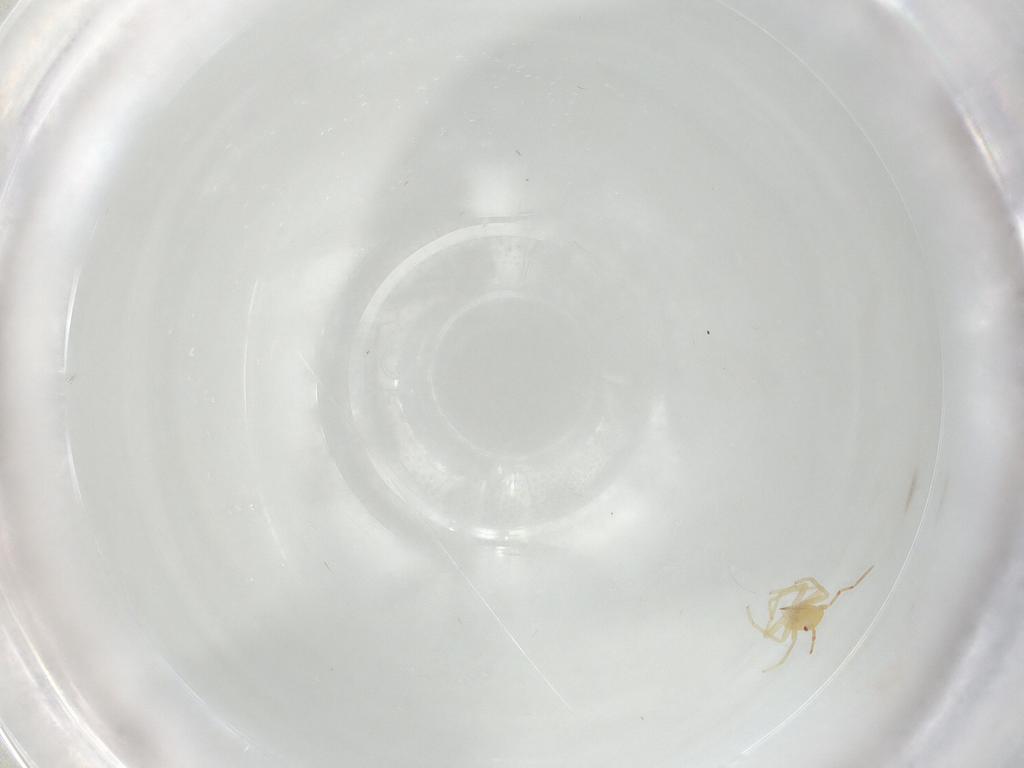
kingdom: Animalia
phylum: Arthropoda
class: Insecta
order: Hemiptera
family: Miridae
